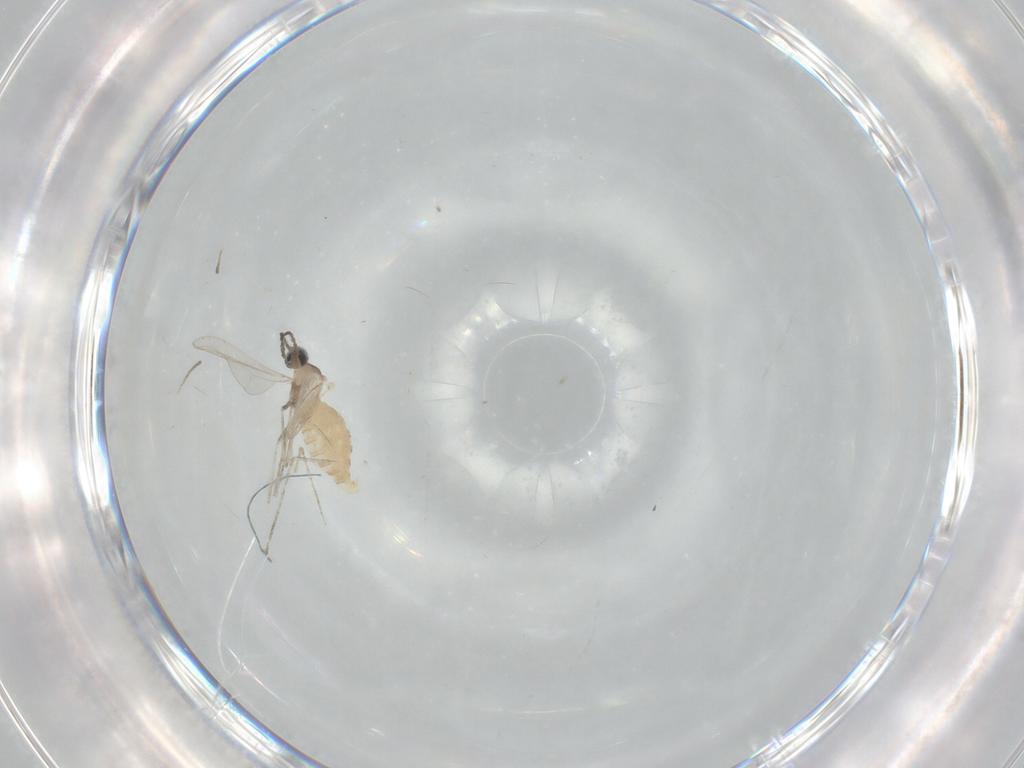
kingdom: Animalia
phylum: Arthropoda
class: Insecta
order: Diptera
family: Cecidomyiidae
